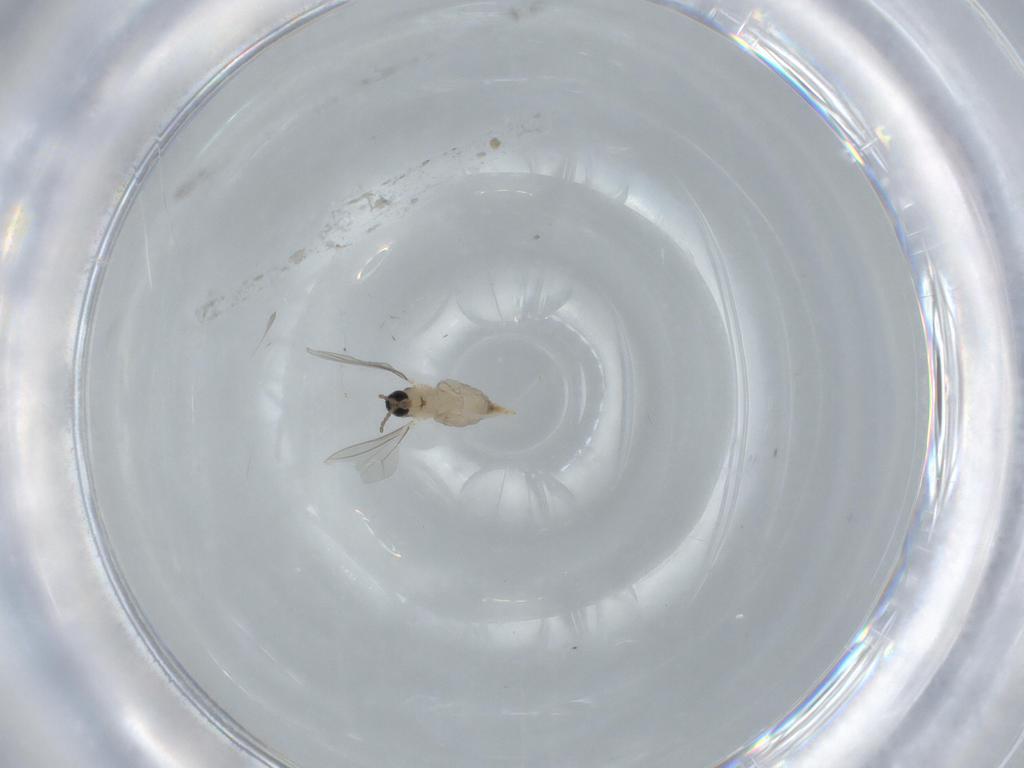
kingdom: Animalia
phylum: Arthropoda
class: Insecta
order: Diptera
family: Cecidomyiidae
